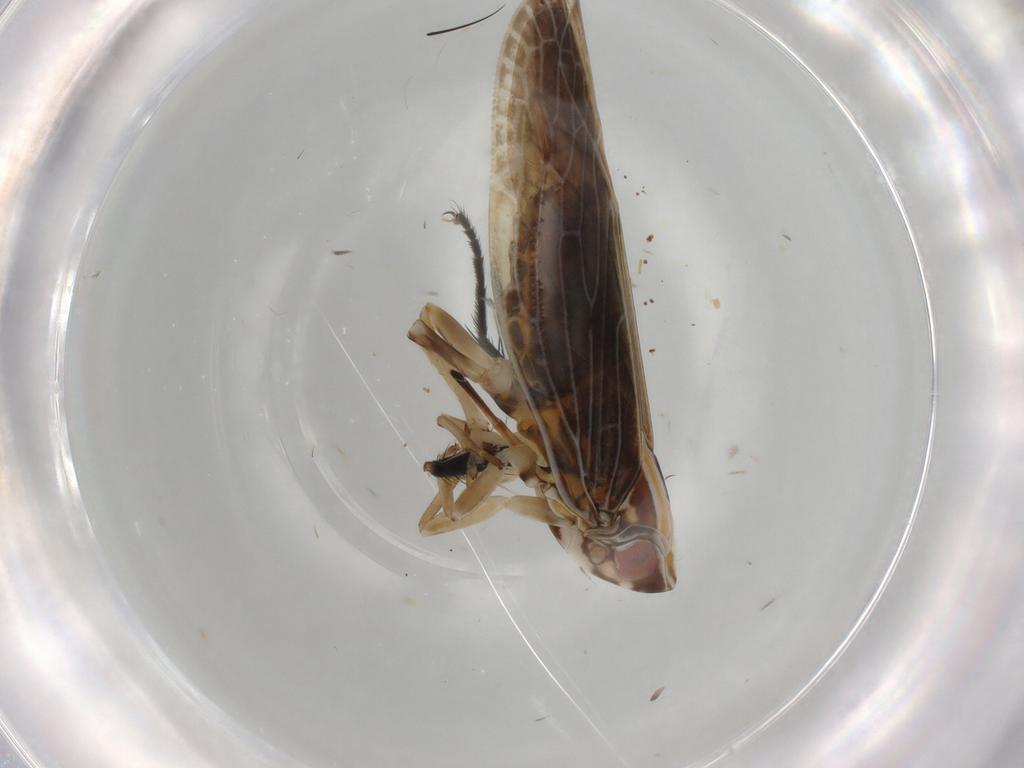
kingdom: Animalia
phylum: Arthropoda
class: Insecta
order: Hemiptera
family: Achilidae
